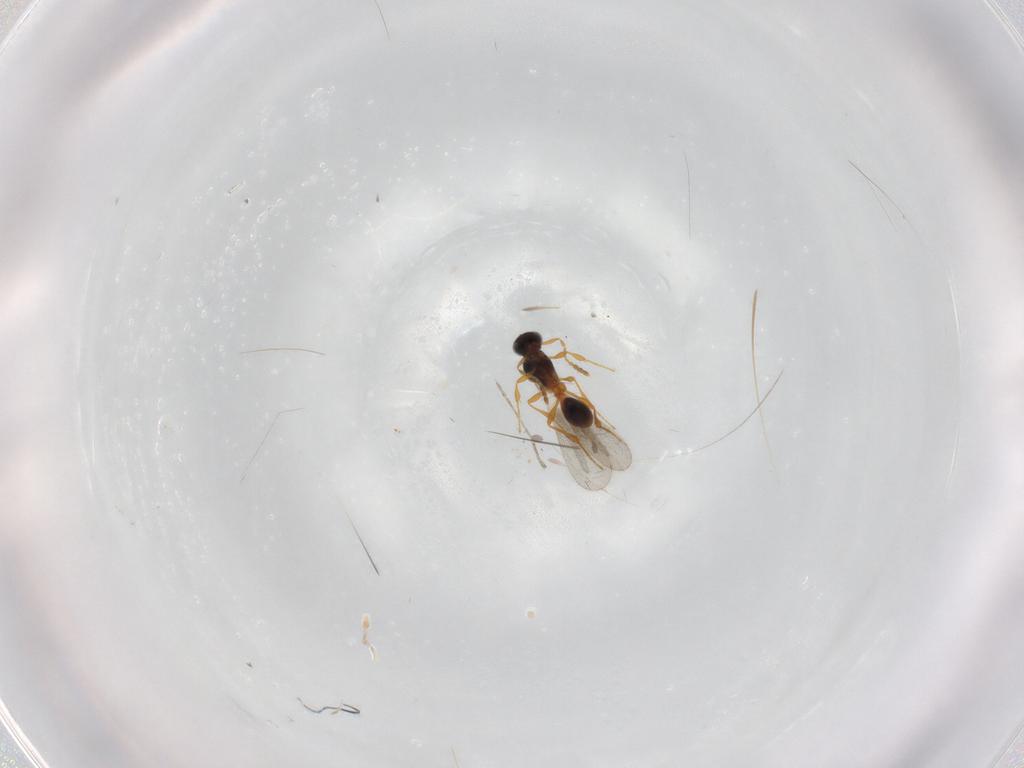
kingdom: Animalia
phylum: Arthropoda
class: Insecta
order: Hymenoptera
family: Platygastridae
